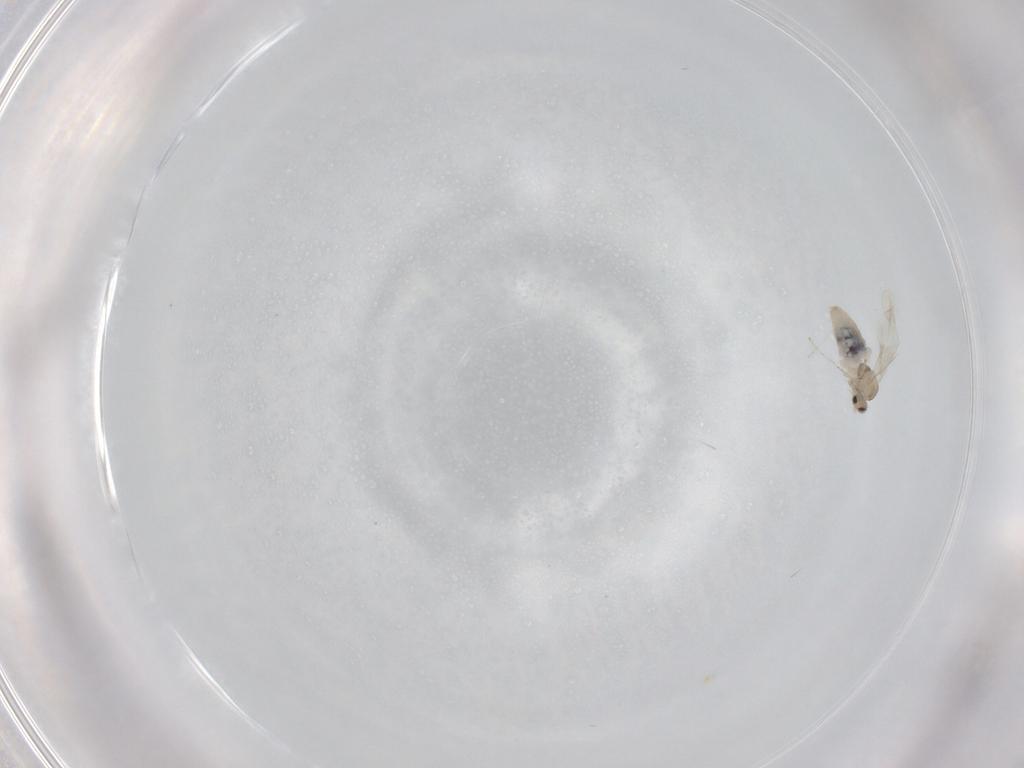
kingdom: Animalia
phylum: Arthropoda
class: Insecta
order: Diptera
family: Cecidomyiidae
